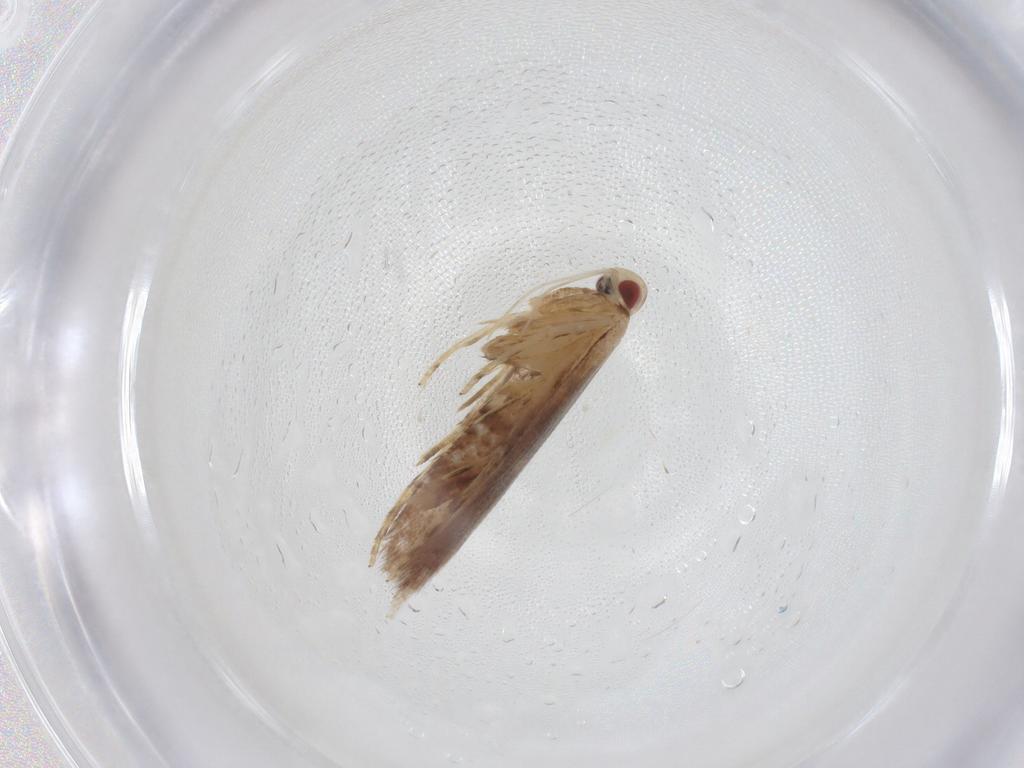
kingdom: Animalia
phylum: Arthropoda
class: Insecta
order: Lepidoptera
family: Cosmopterigidae
